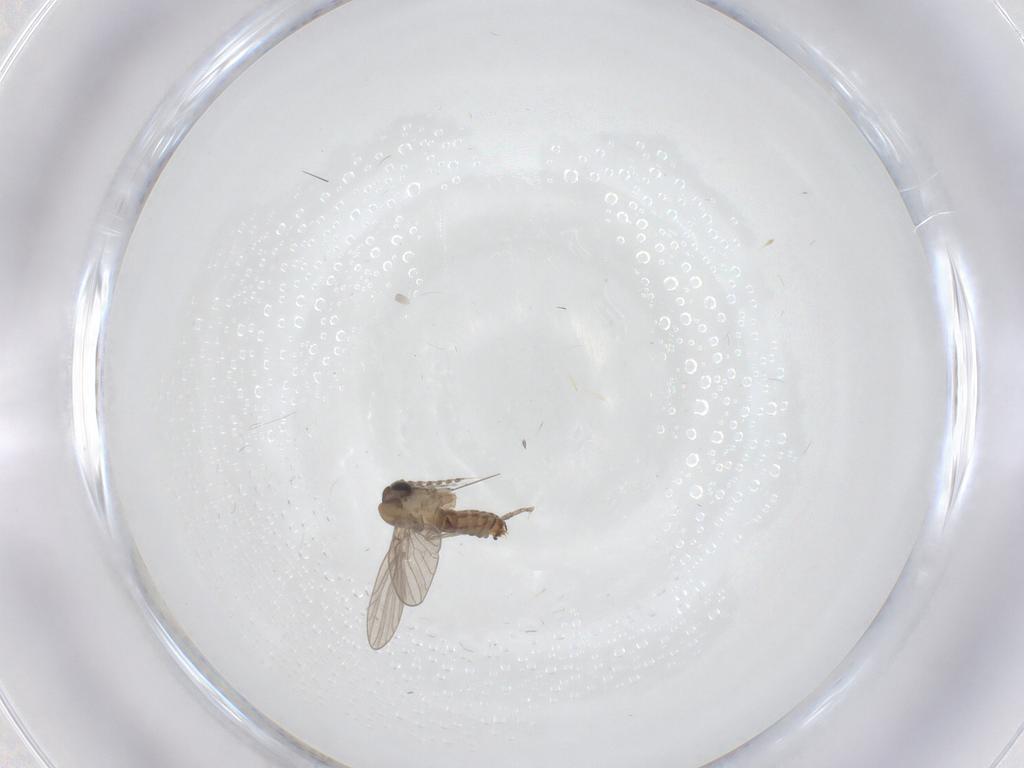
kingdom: Animalia
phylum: Arthropoda
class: Insecta
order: Diptera
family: Psychodidae
